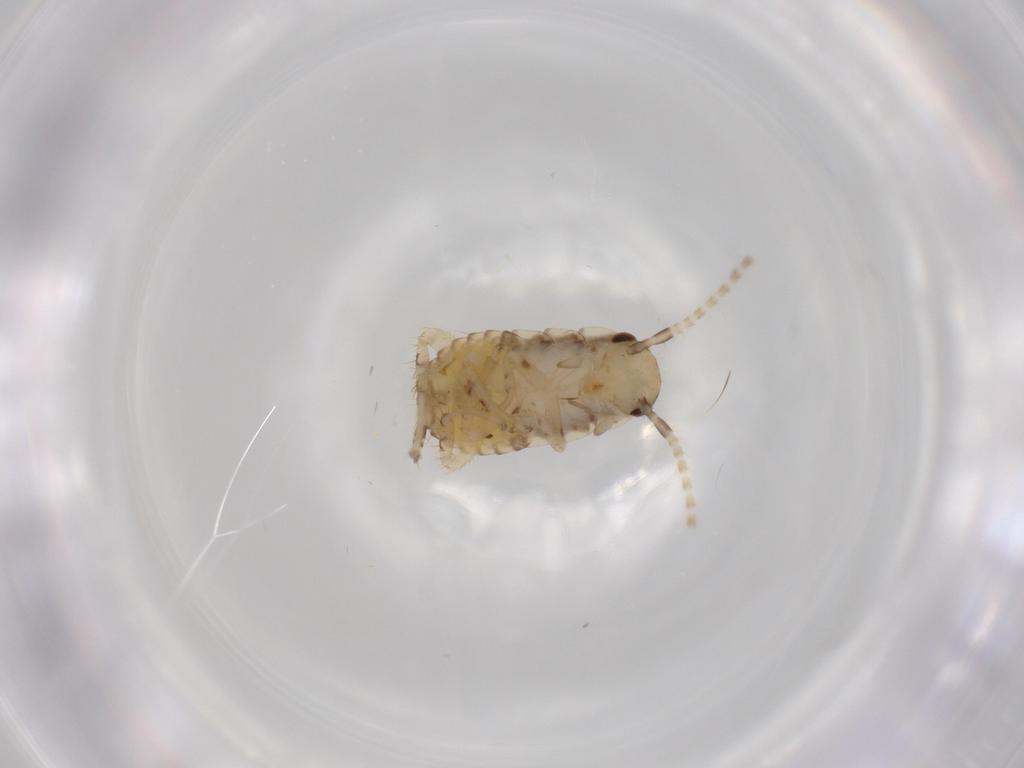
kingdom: Animalia
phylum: Arthropoda
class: Insecta
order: Blattodea
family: Ectobiidae
